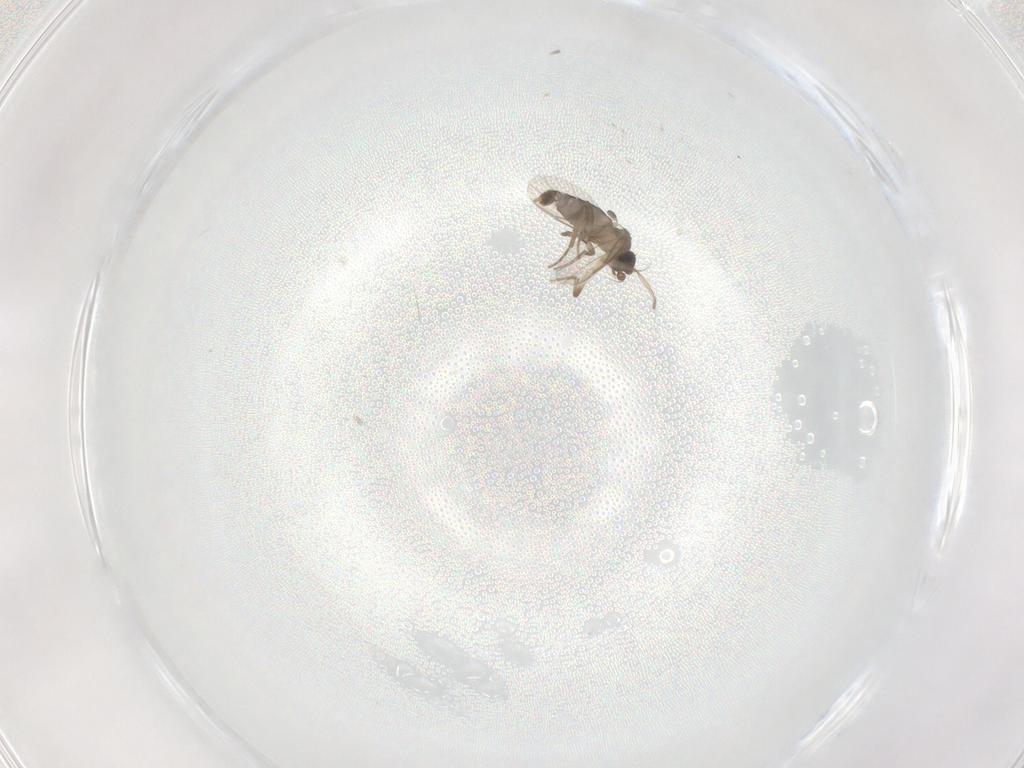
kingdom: Animalia
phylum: Arthropoda
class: Insecta
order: Diptera
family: Phoridae
